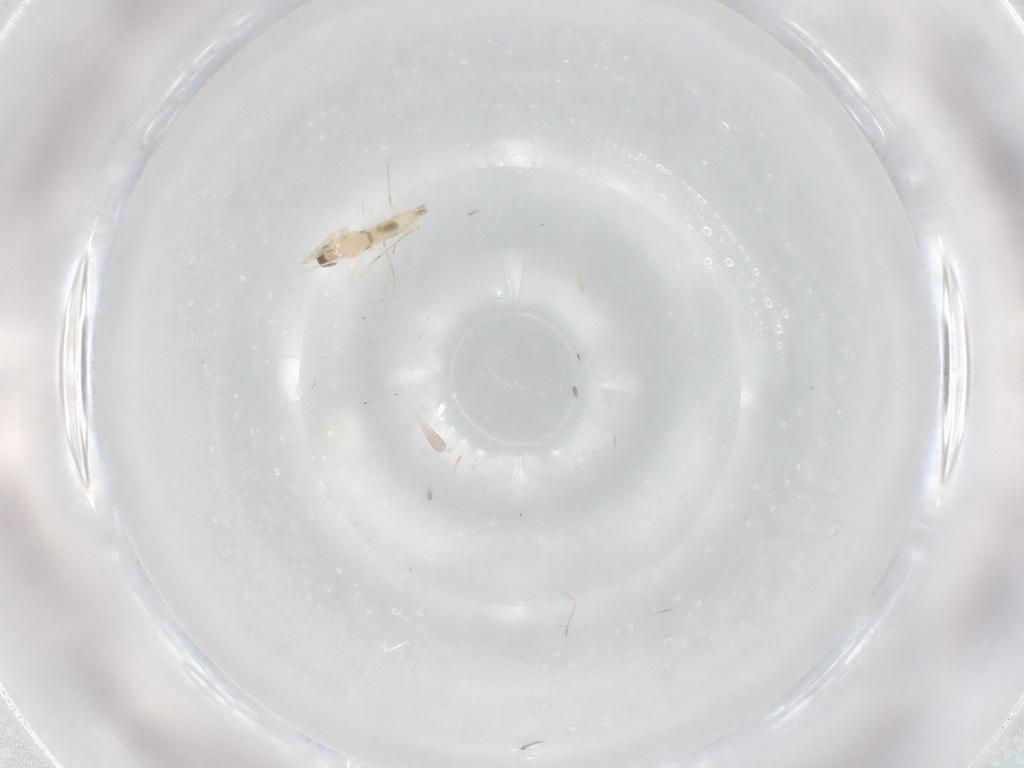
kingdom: Animalia
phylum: Arthropoda
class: Insecta
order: Diptera
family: Cecidomyiidae
